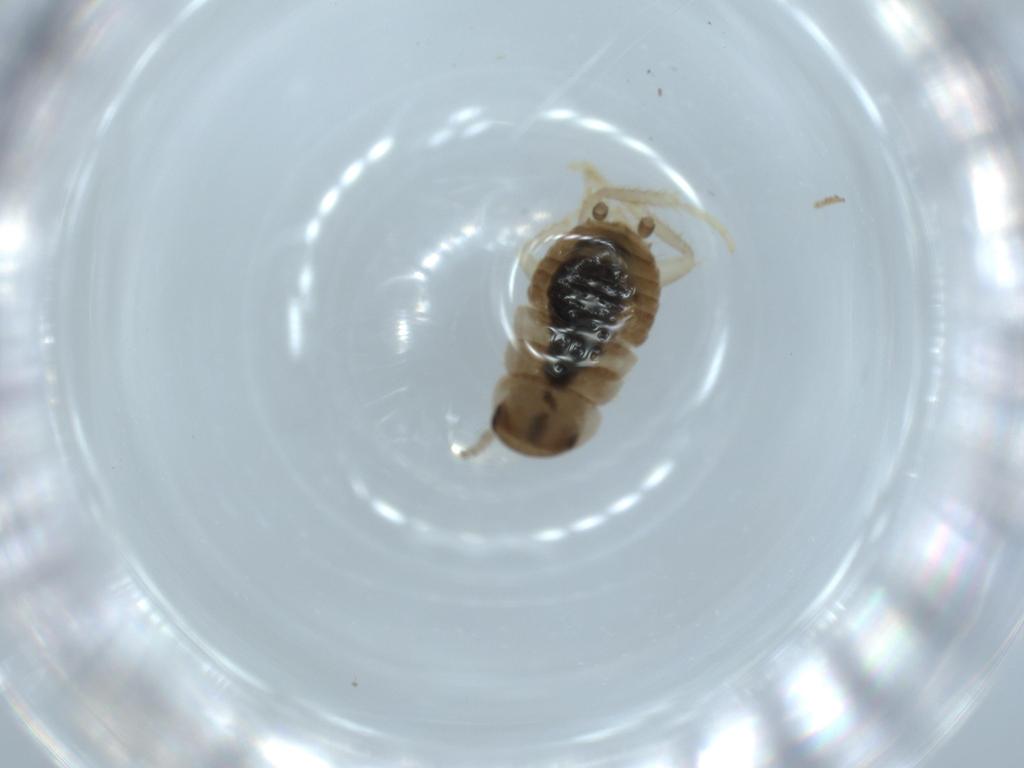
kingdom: Animalia
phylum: Arthropoda
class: Insecta
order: Blattodea
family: Ectobiidae
